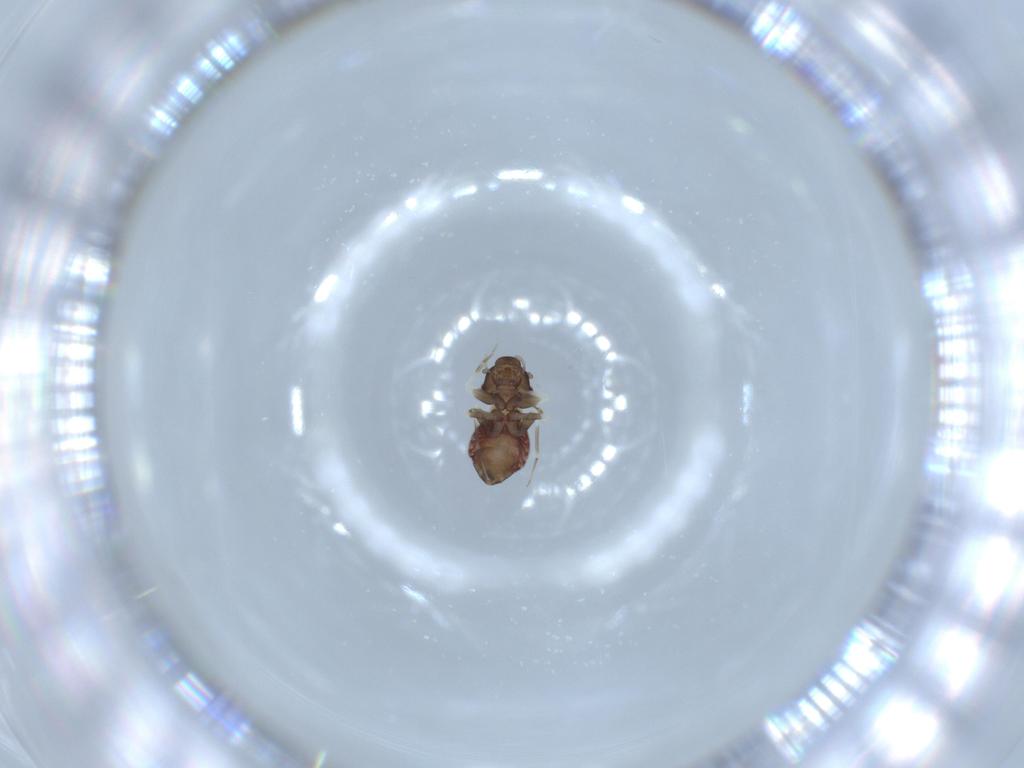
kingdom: Animalia
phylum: Arthropoda
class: Insecta
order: Psocodea
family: Lepidopsocidae
